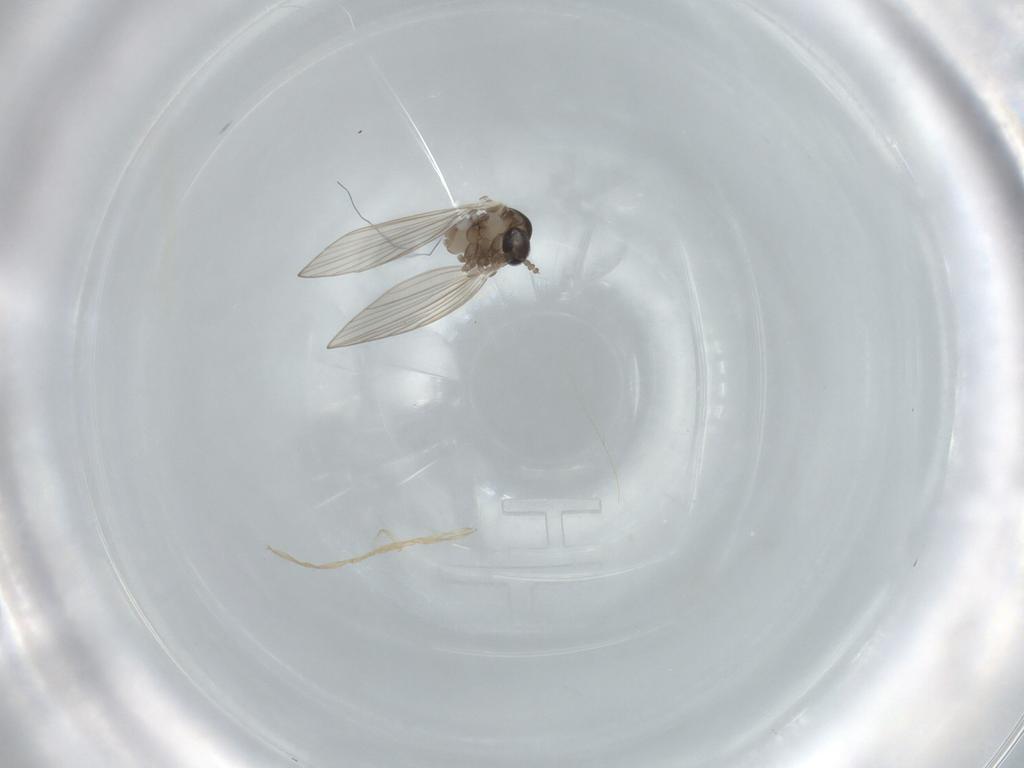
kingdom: Animalia
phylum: Arthropoda
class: Insecta
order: Diptera
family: Psychodidae
